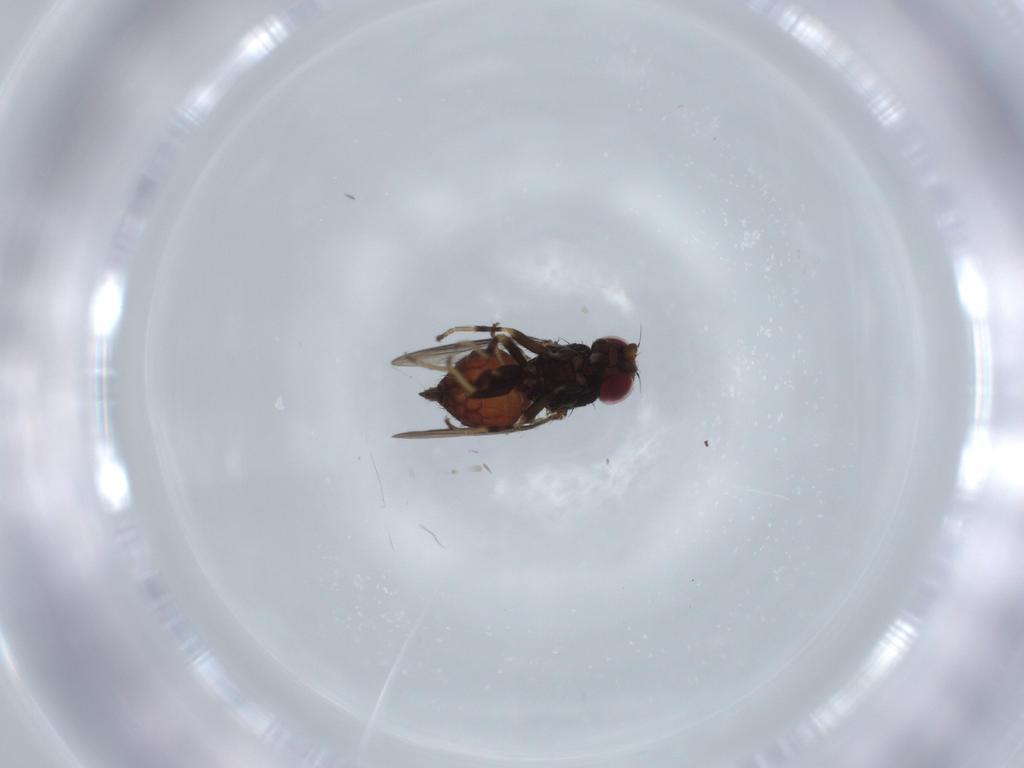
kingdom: Animalia
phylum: Arthropoda
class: Insecta
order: Diptera
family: Chloropidae
